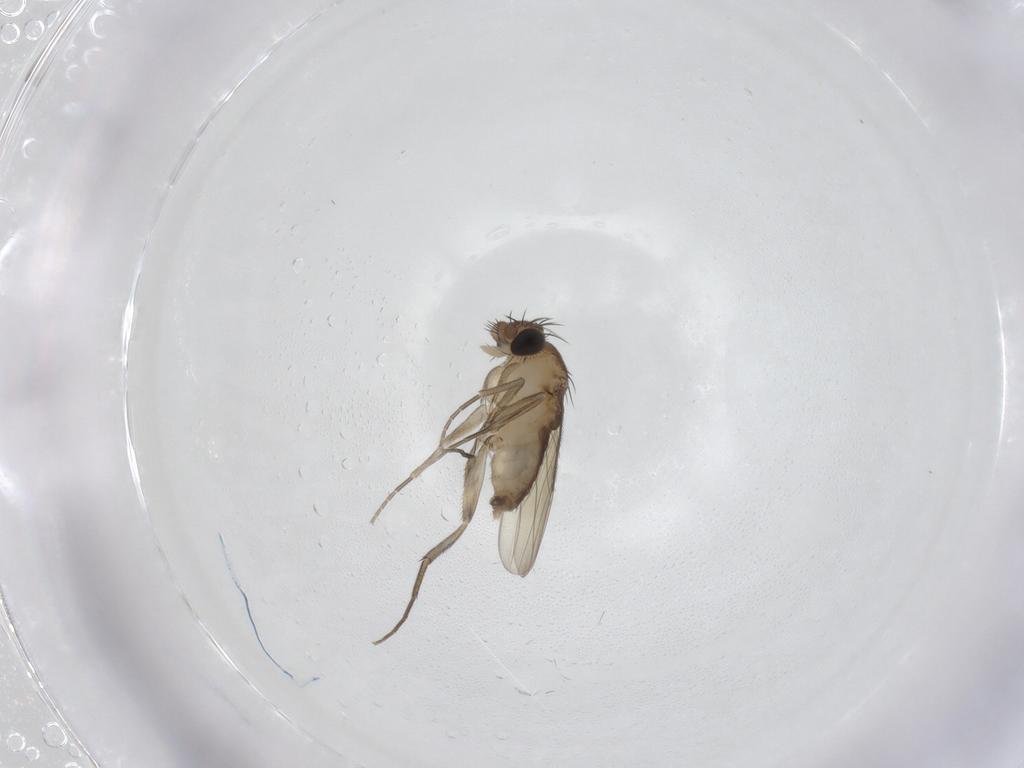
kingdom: Animalia
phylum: Arthropoda
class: Insecta
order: Diptera
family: Phoridae
